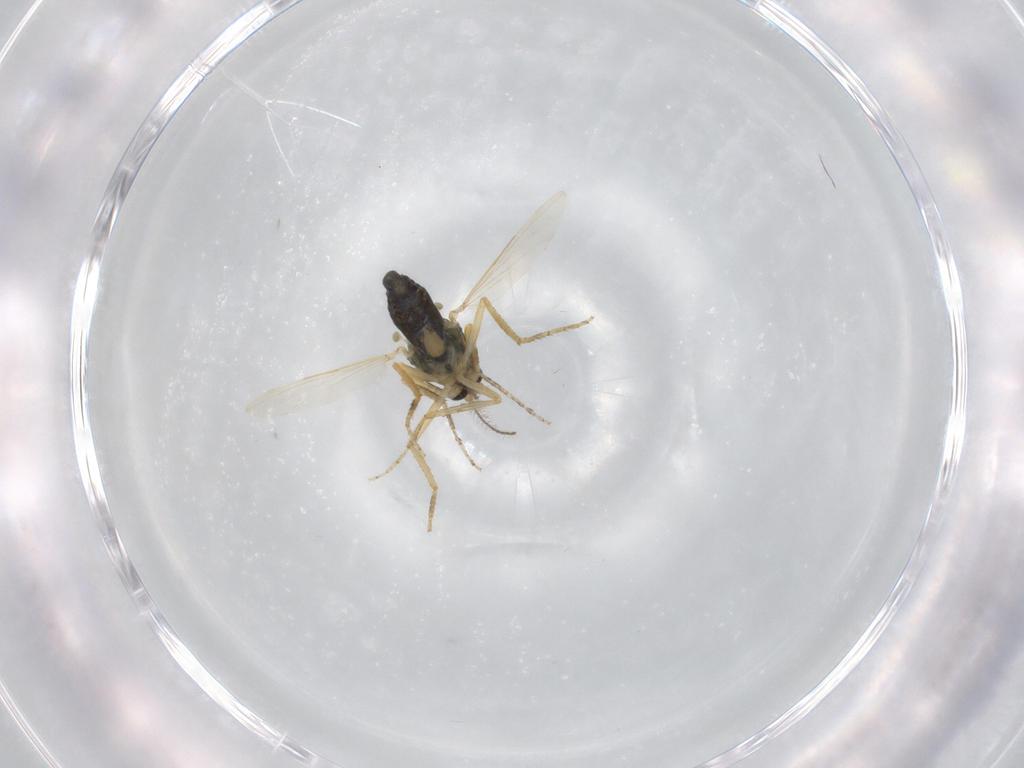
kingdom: Animalia
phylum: Arthropoda
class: Insecta
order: Diptera
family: Ceratopogonidae
